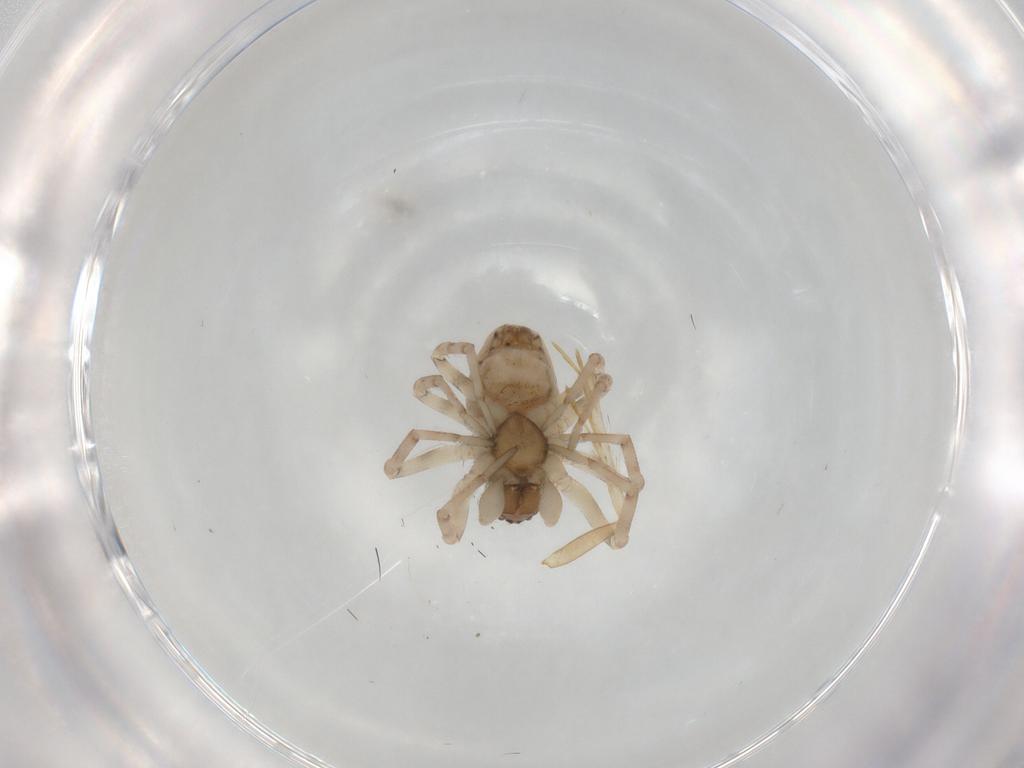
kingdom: Animalia
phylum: Arthropoda
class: Arachnida
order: Araneae
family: Dictynidae
